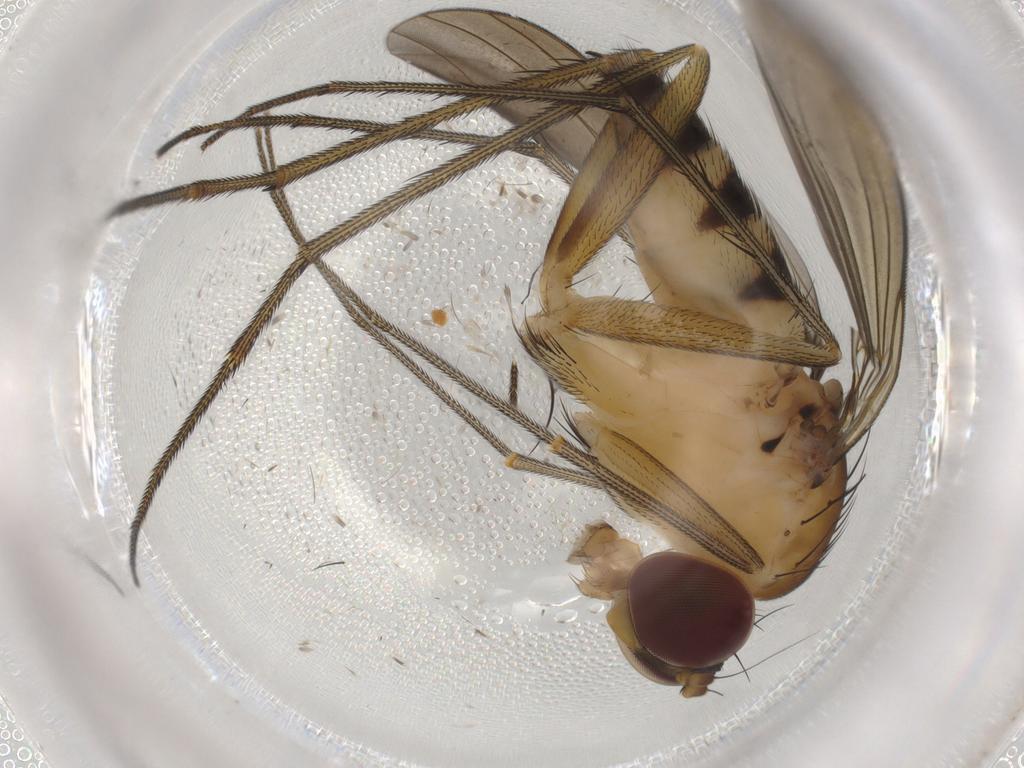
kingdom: Animalia
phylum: Arthropoda
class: Insecta
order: Diptera
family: Dolichopodidae
